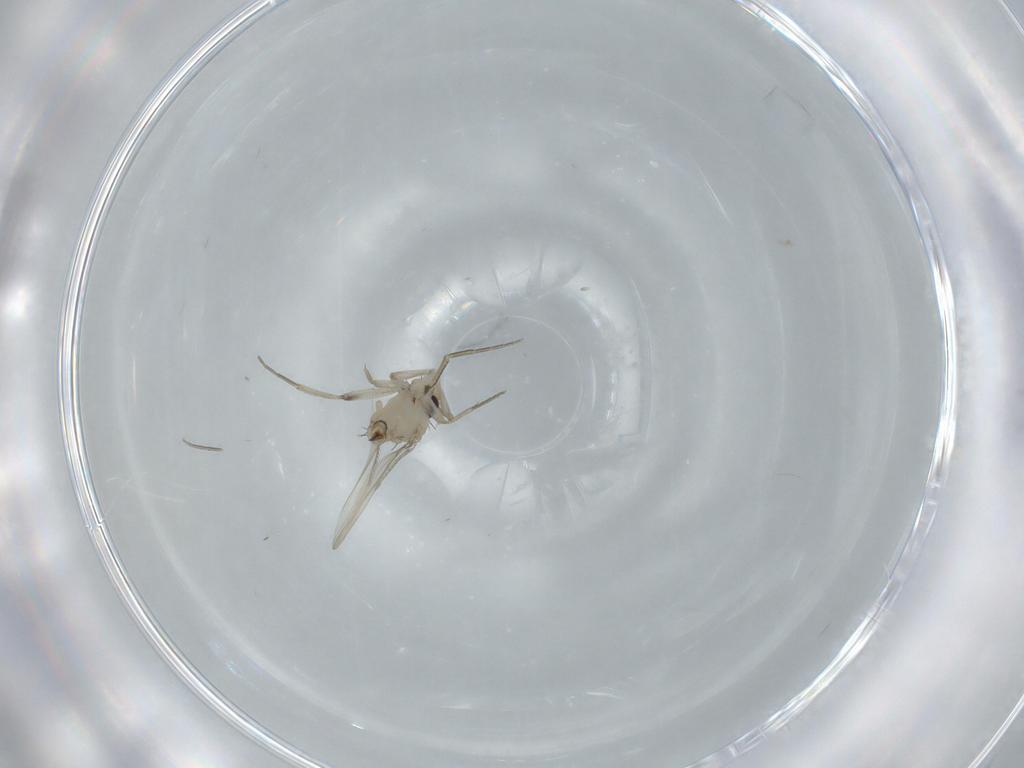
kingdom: Animalia
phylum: Arthropoda
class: Insecta
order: Diptera
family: Phoridae
